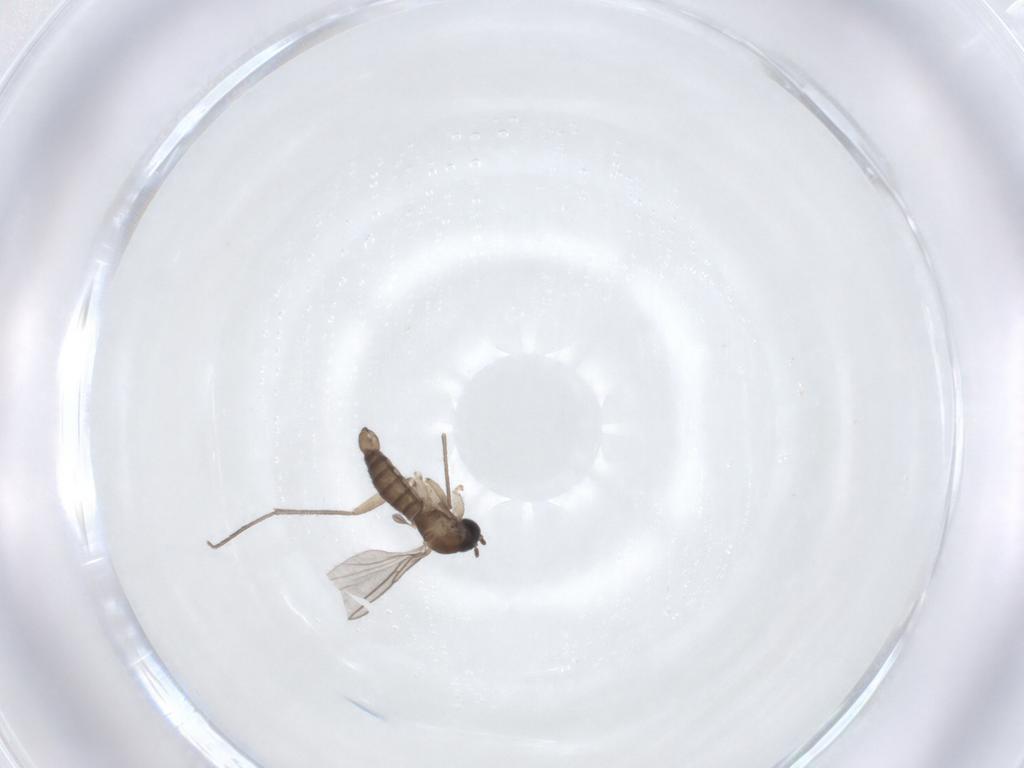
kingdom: Animalia
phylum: Arthropoda
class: Insecta
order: Diptera
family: Sciaridae
